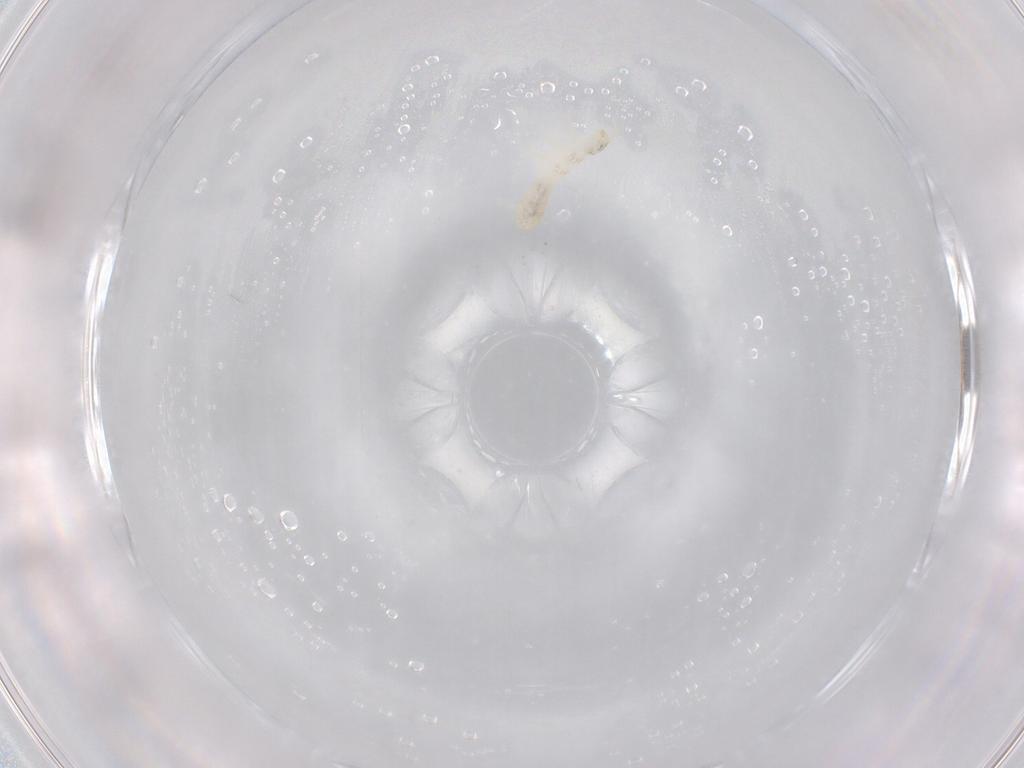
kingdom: Animalia
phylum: Arthropoda
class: Collembola
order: Entomobryomorpha
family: Isotomidae
